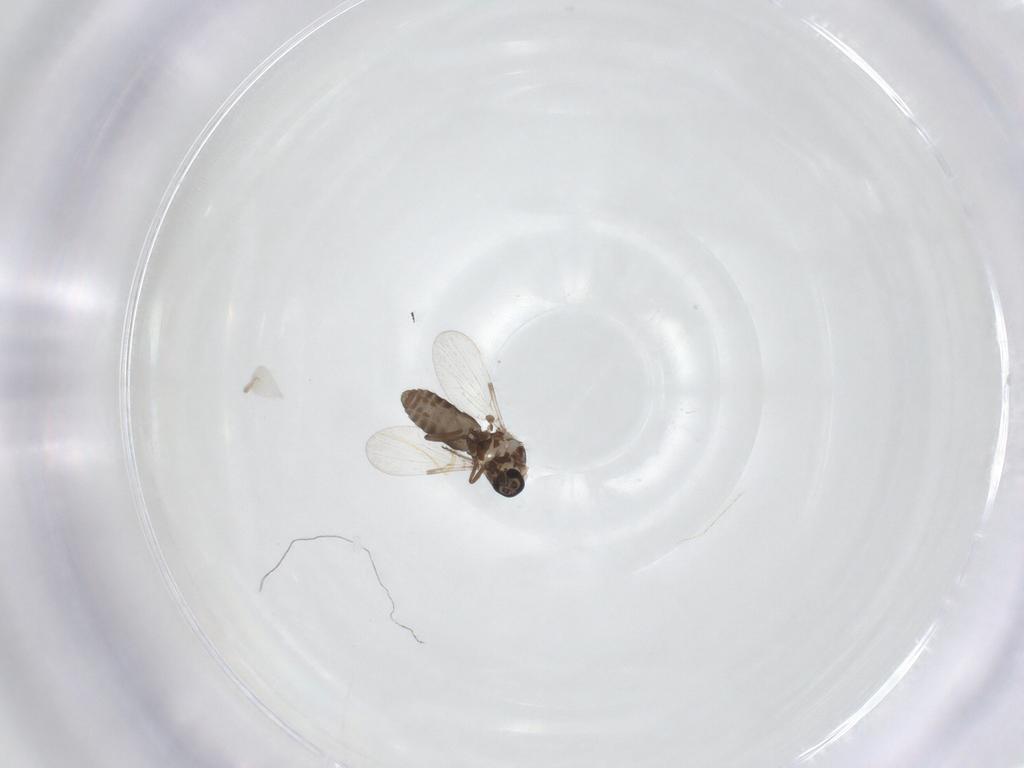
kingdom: Animalia
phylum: Arthropoda
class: Insecta
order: Diptera
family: Ceratopogonidae
